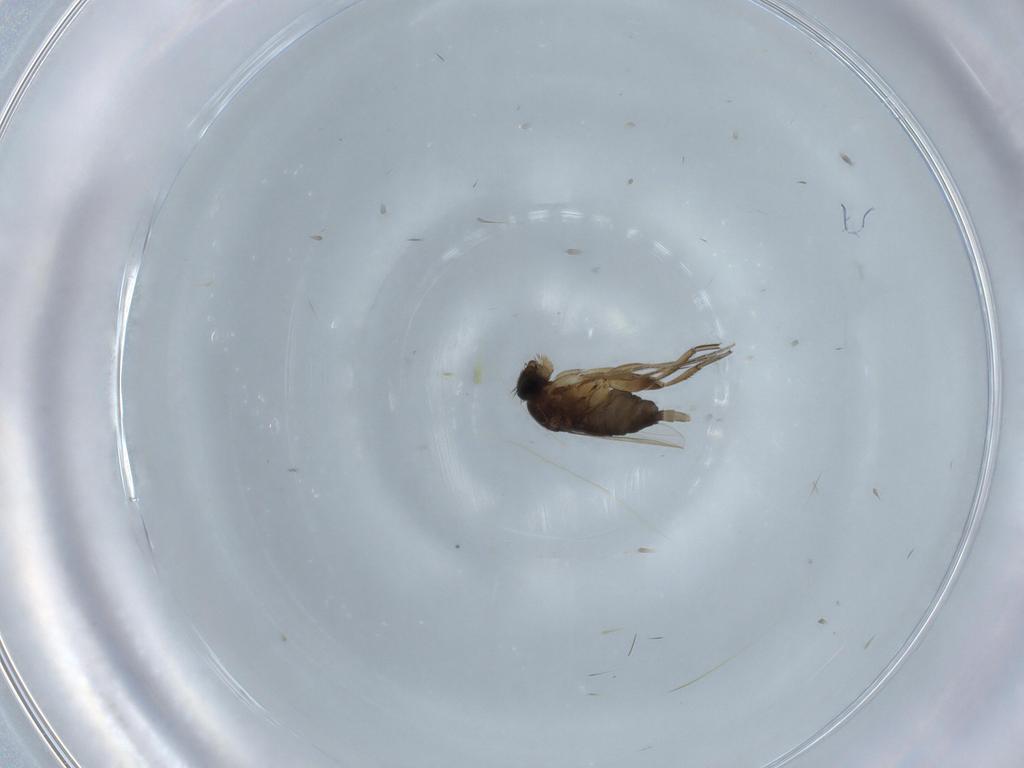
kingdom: Animalia
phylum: Arthropoda
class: Insecta
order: Diptera
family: Phoridae
